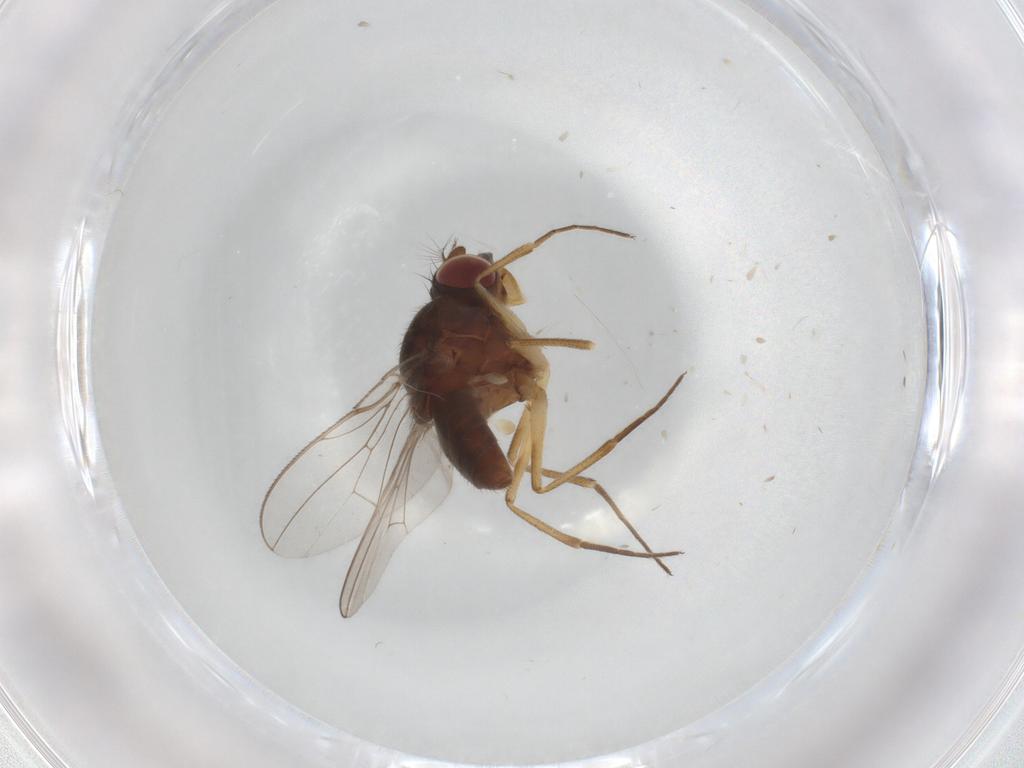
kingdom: Animalia
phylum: Arthropoda
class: Insecta
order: Diptera
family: Ephydridae
